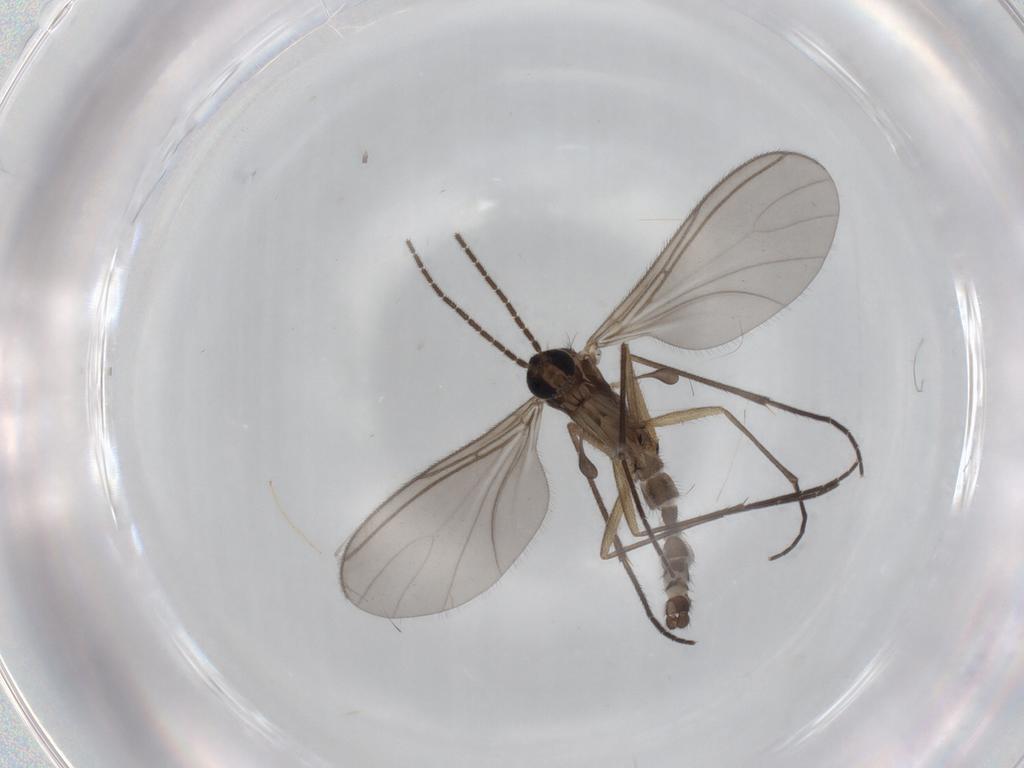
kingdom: Animalia
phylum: Arthropoda
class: Insecta
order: Diptera
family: Sciaridae
